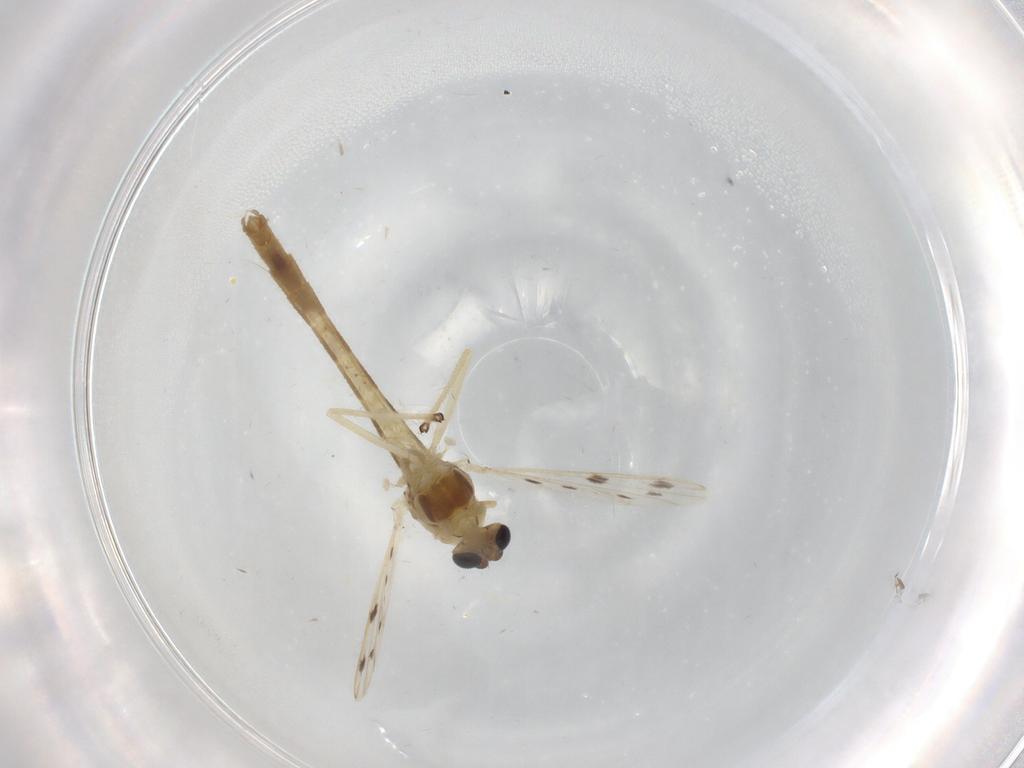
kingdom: Animalia
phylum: Arthropoda
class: Insecta
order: Diptera
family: Chironomidae
